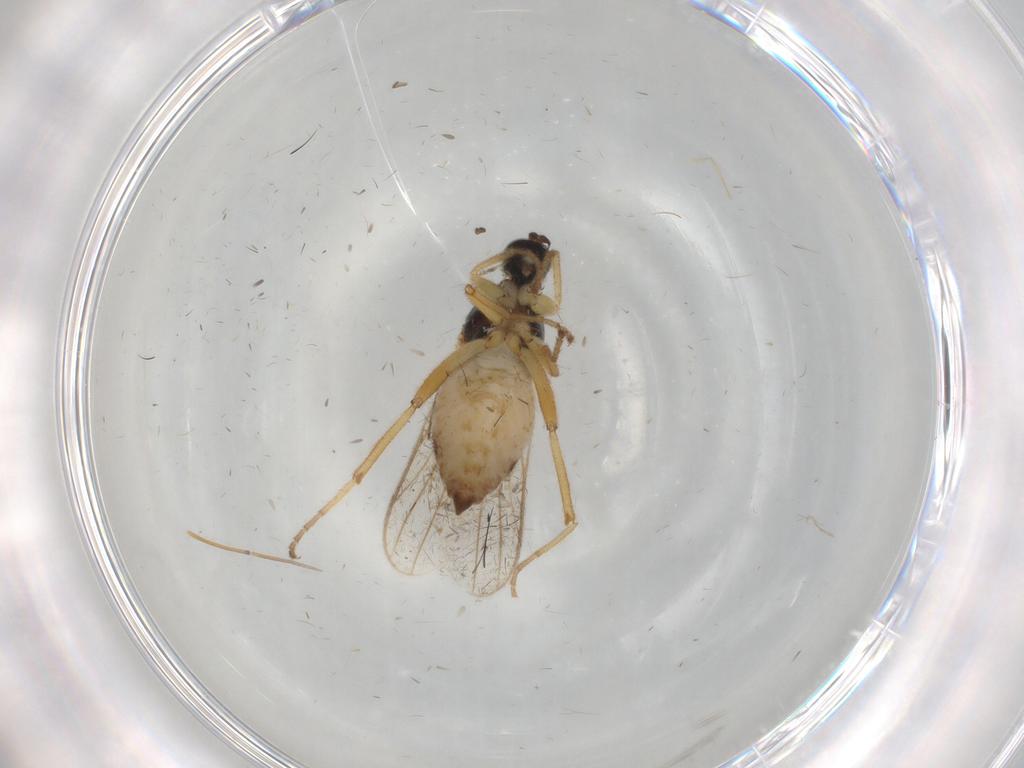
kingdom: Animalia
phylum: Arthropoda
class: Insecta
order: Diptera
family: Hybotidae
